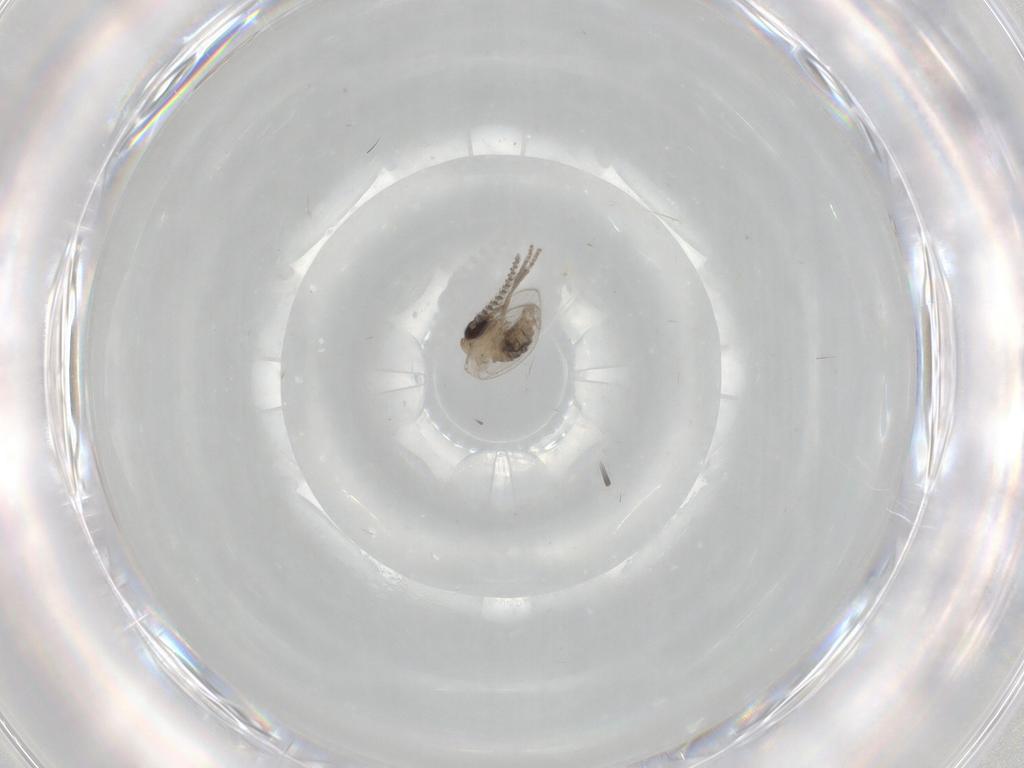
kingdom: Animalia
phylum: Arthropoda
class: Insecta
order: Diptera
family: Psychodidae
